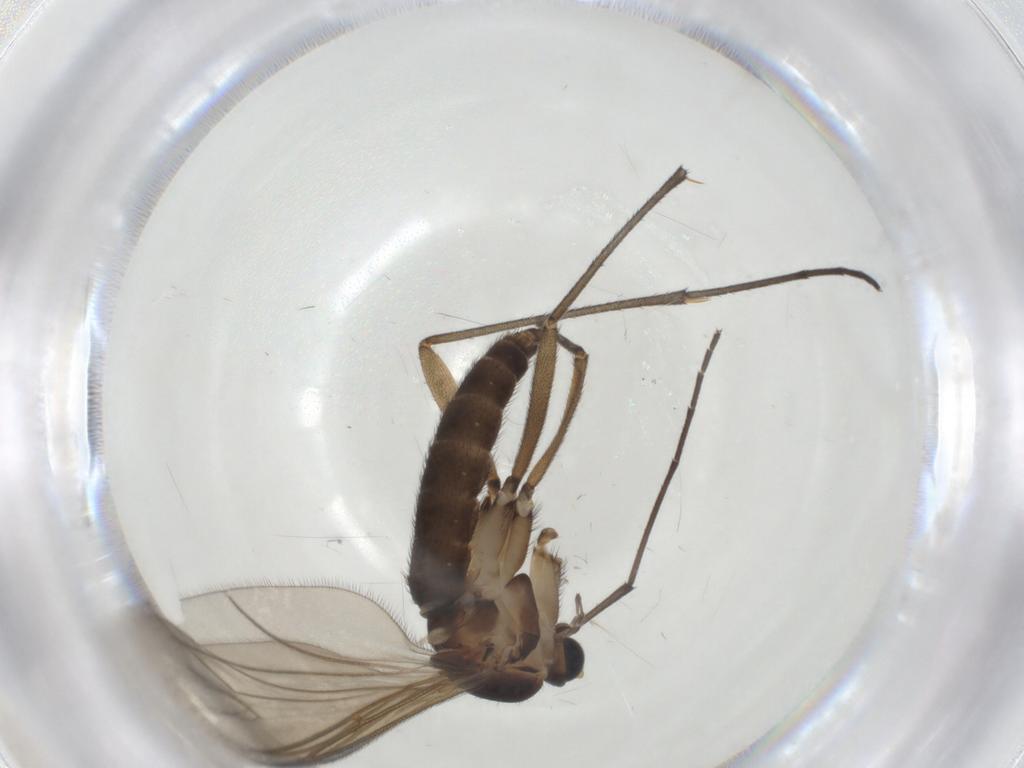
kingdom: Animalia
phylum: Arthropoda
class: Insecta
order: Diptera
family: Sciaridae
